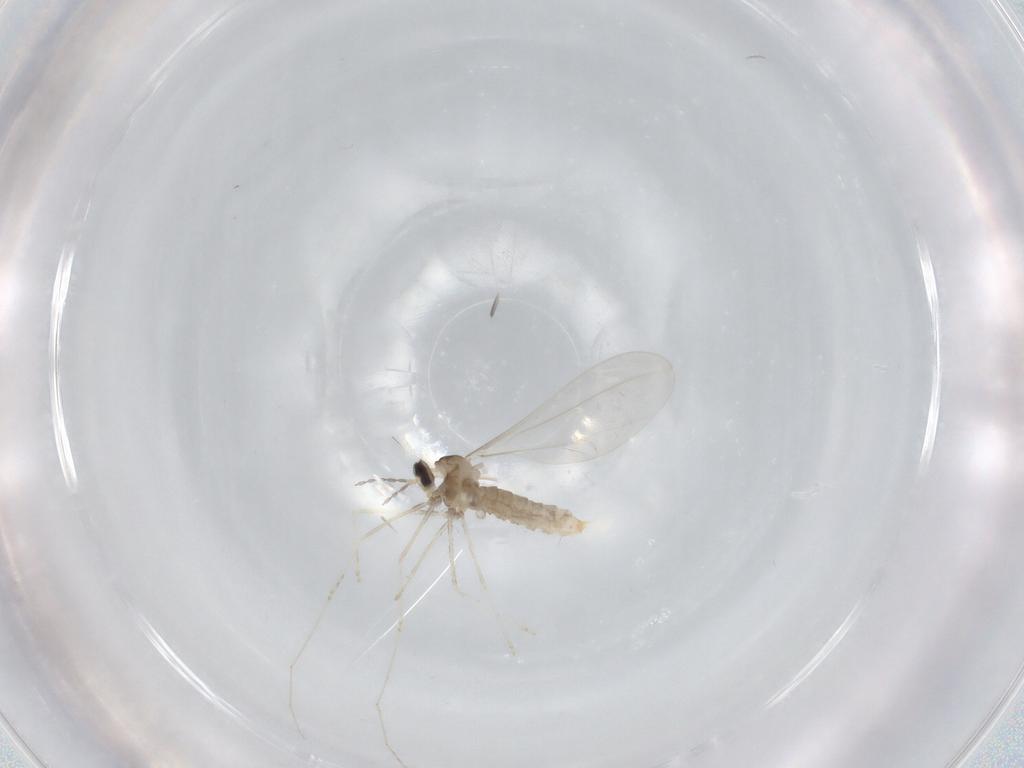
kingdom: Animalia
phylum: Arthropoda
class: Insecta
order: Diptera
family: Cecidomyiidae
